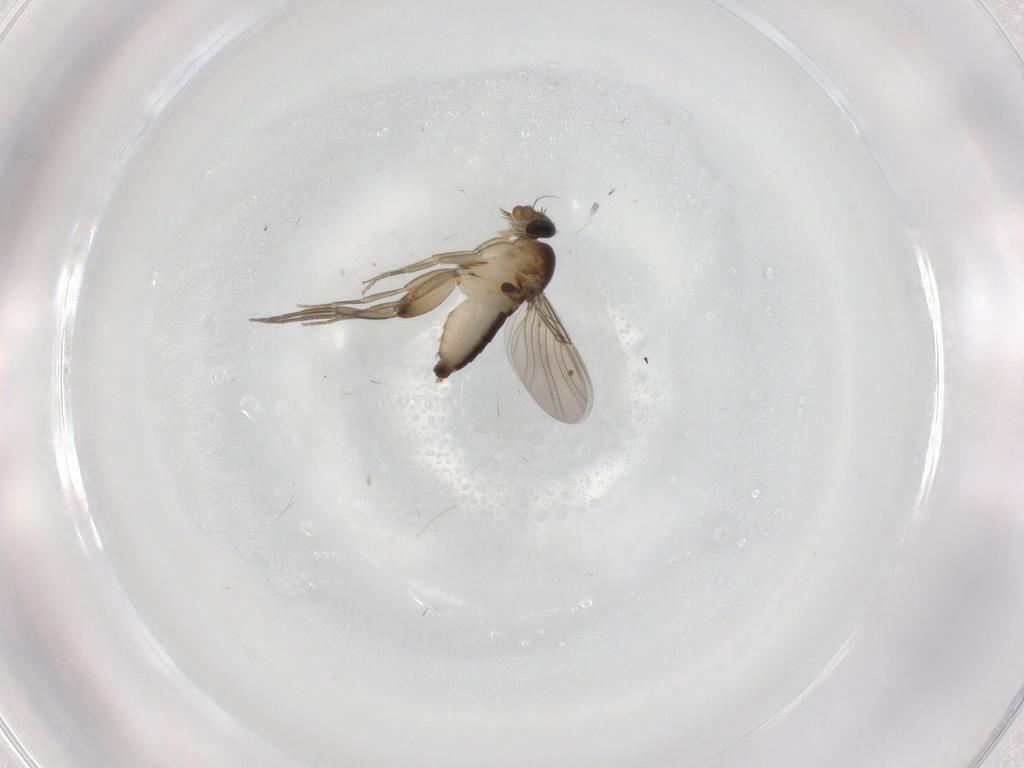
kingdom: Animalia
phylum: Arthropoda
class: Insecta
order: Diptera
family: Phoridae
